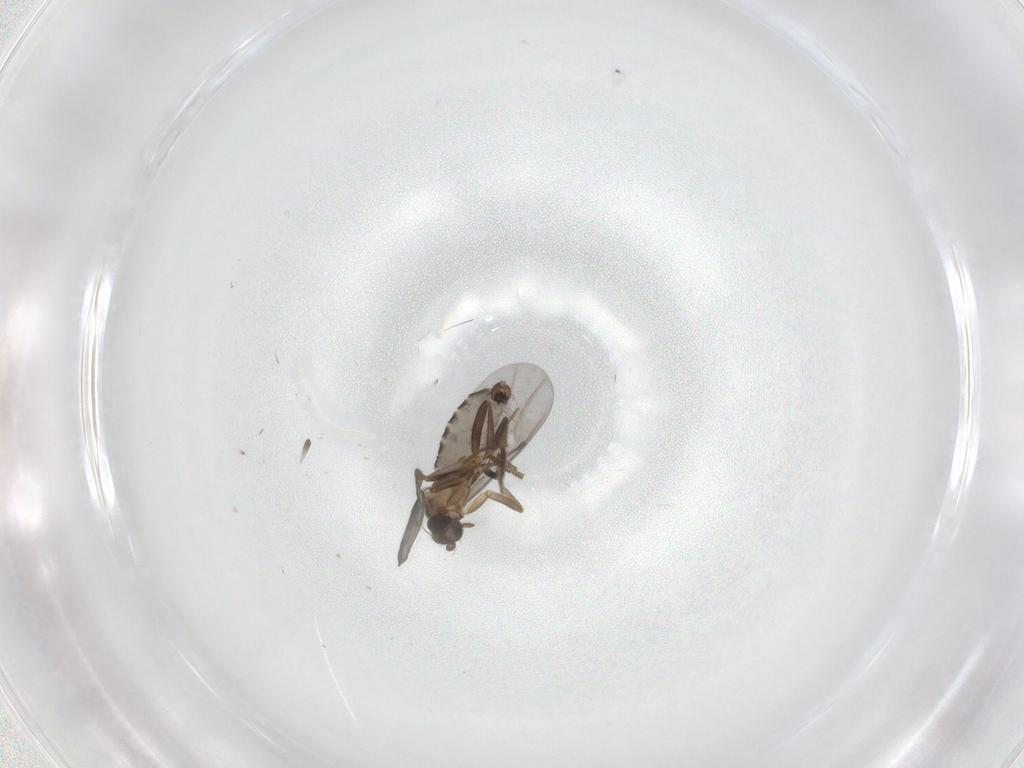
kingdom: Animalia
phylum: Arthropoda
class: Insecta
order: Diptera
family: Phoridae
